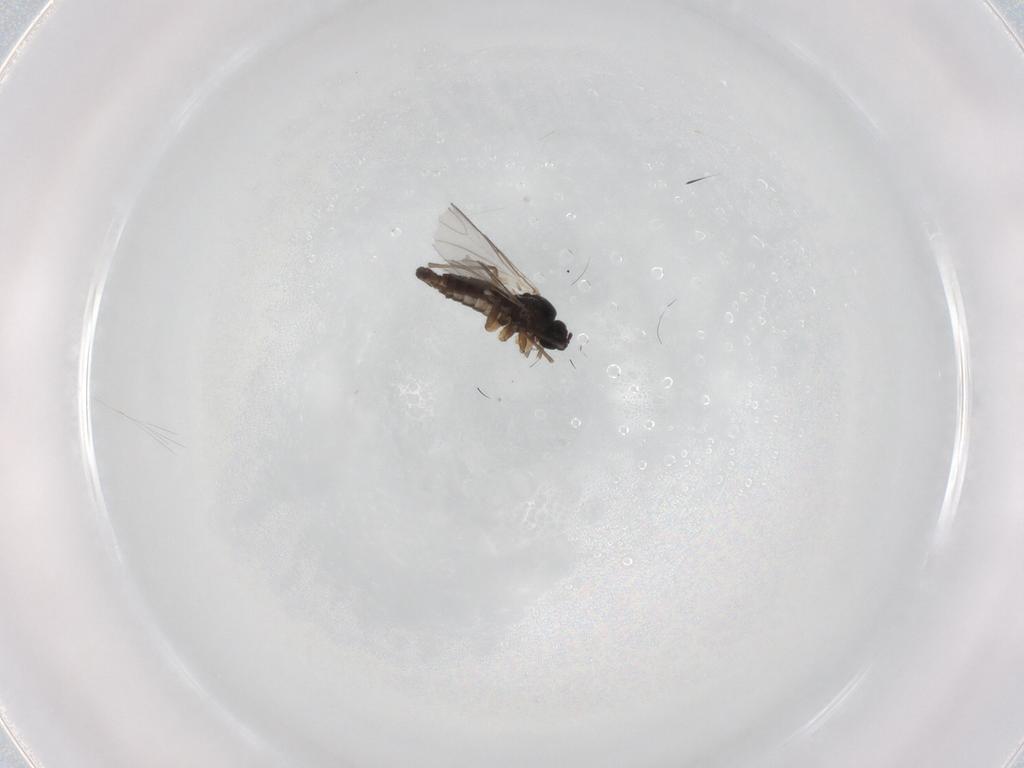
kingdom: Animalia
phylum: Arthropoda
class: Insecta
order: Diptera
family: Sciaridae
